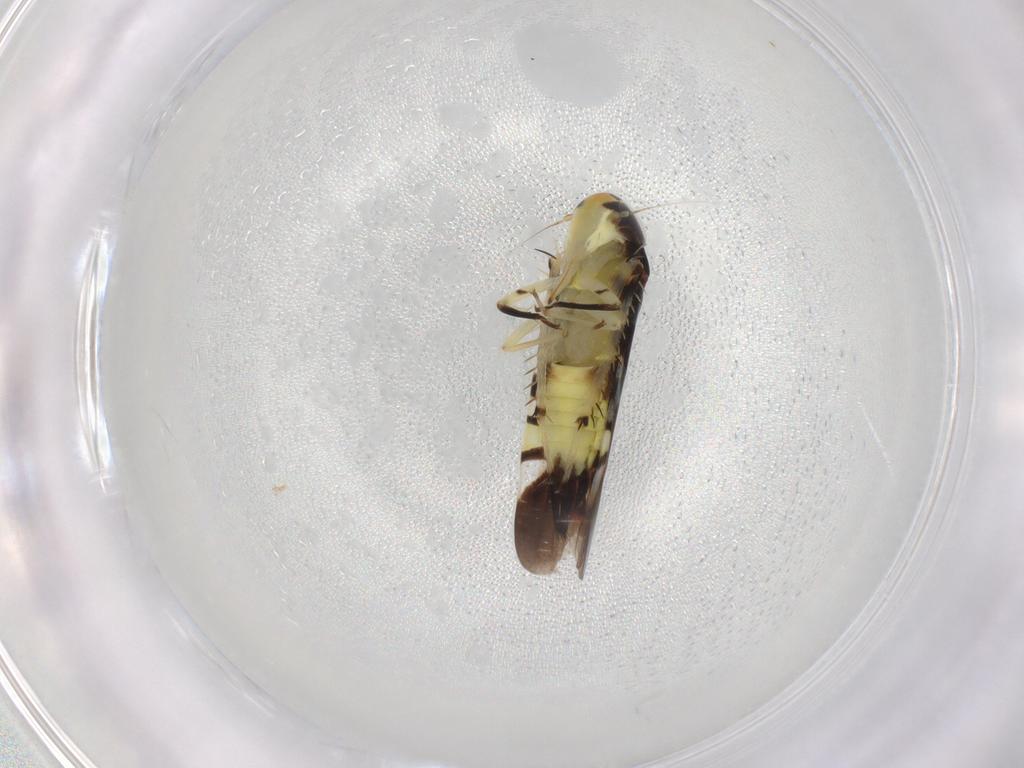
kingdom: Animalia
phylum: Arthropoda
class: Insecta
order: Hemiptera
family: Cicadellidae
